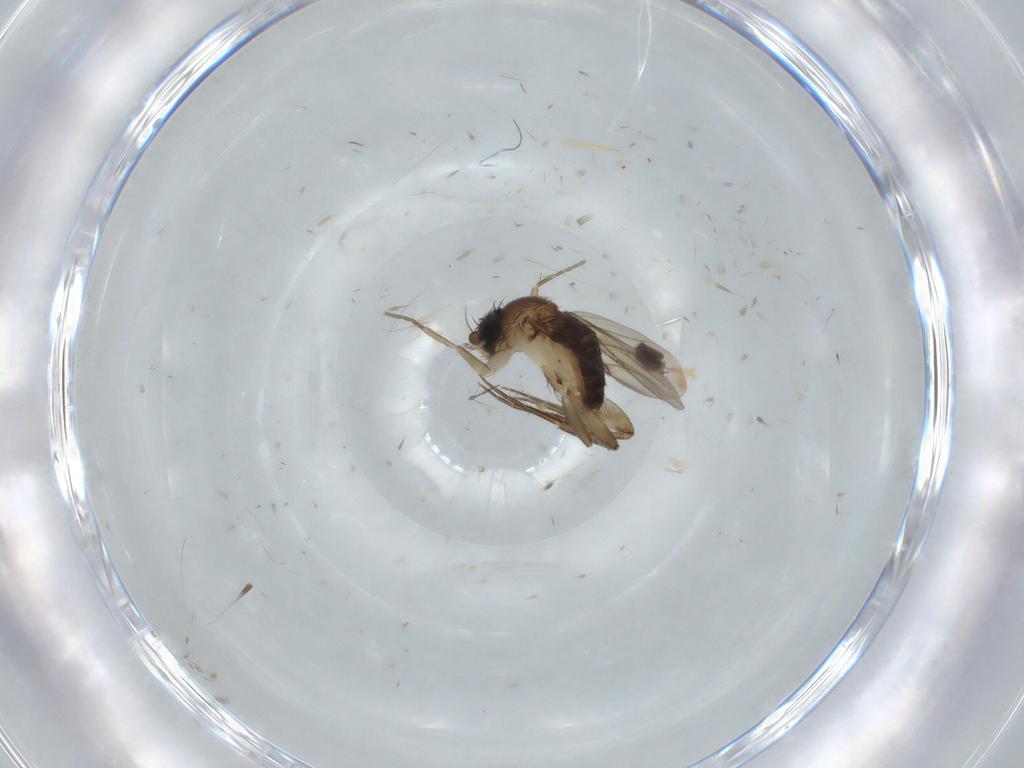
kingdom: Animalia
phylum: Arthropoda
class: Insecta
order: Diptera
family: Phoridae
